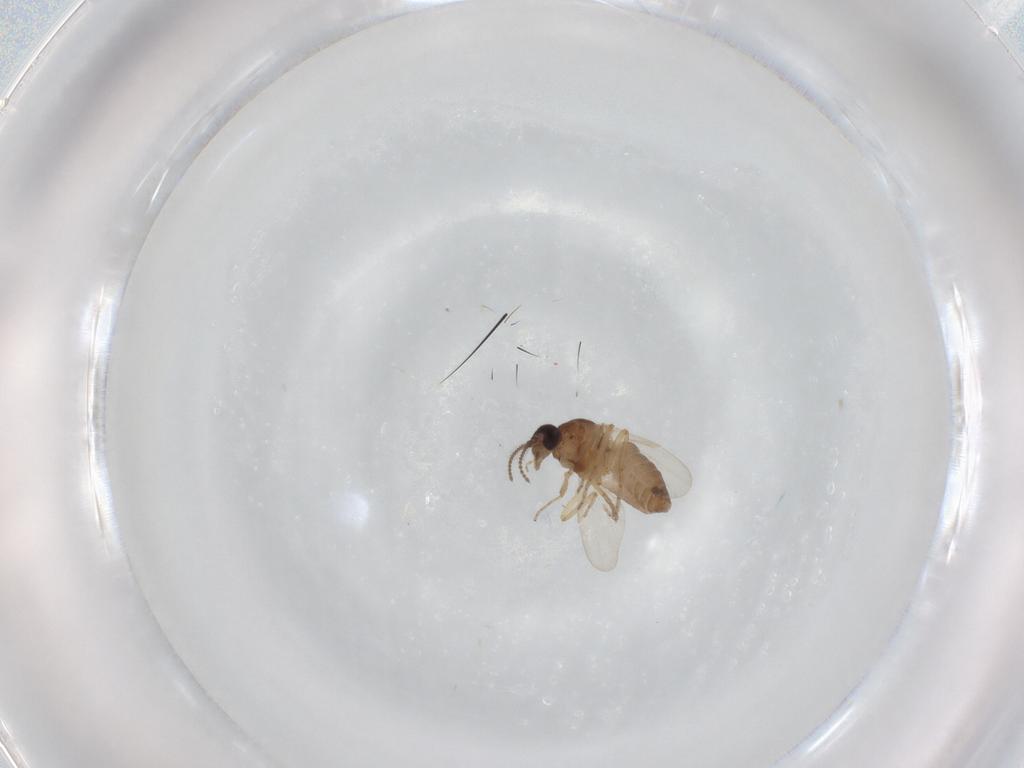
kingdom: Animalia
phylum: Arthropoda
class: Insecta
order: Diptera
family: Ceratopogonidae
